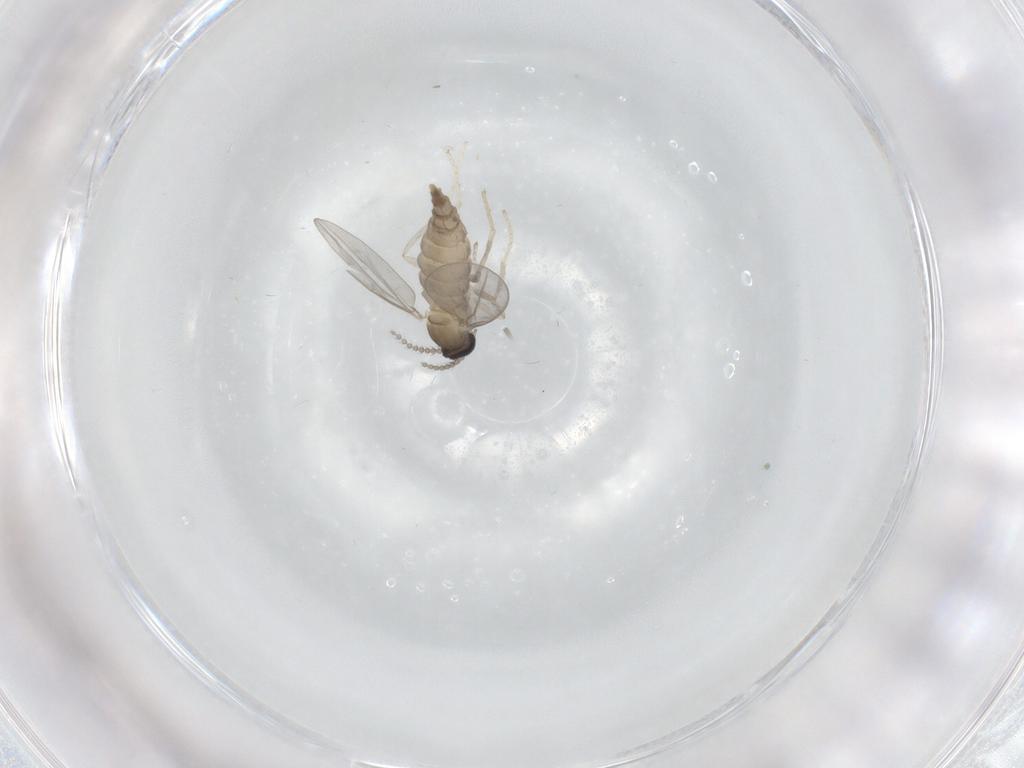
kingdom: Animalia
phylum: Arthropoda
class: Insecta
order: Diptera
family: Cecidomyiidae
